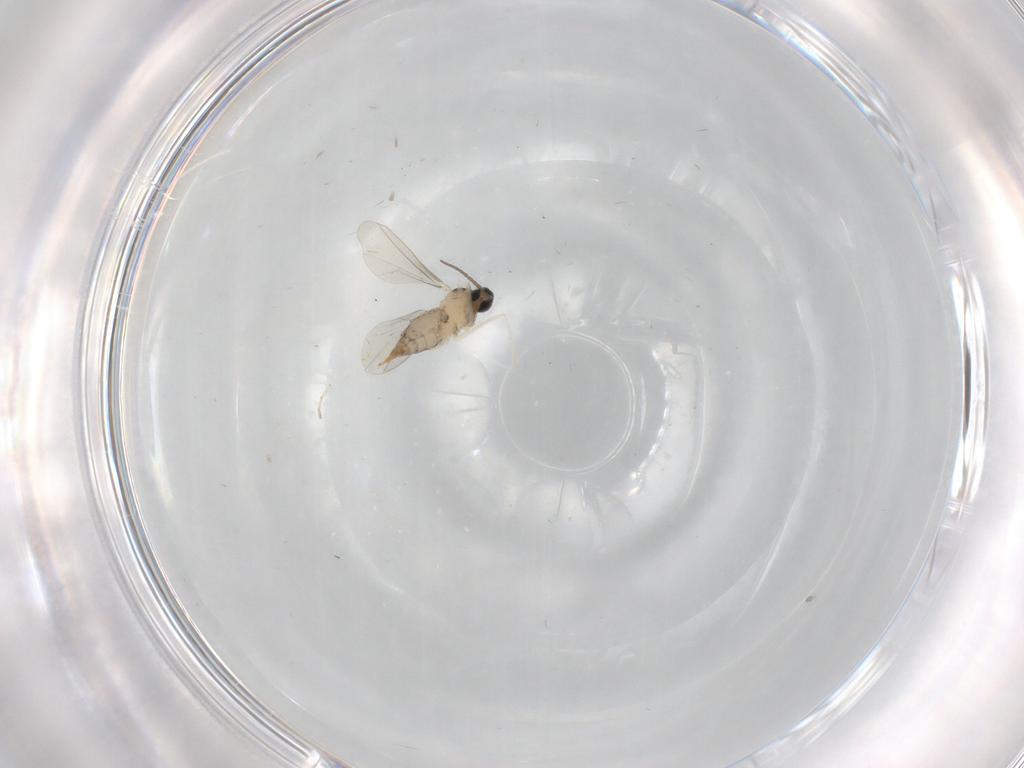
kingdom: Animalia
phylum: Arthropoda
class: Insecta
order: Diptera
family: Cecidomyiidae
